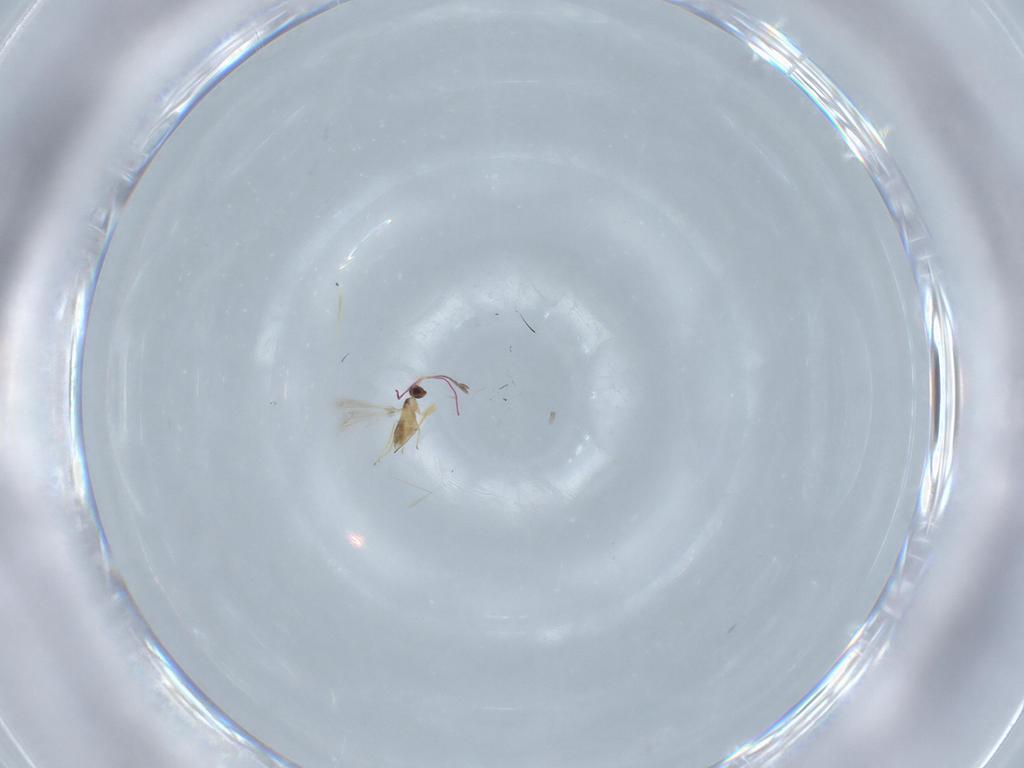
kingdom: Animalia
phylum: Arthropoda
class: Insecta
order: Hymenoptera
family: Mymaridae
